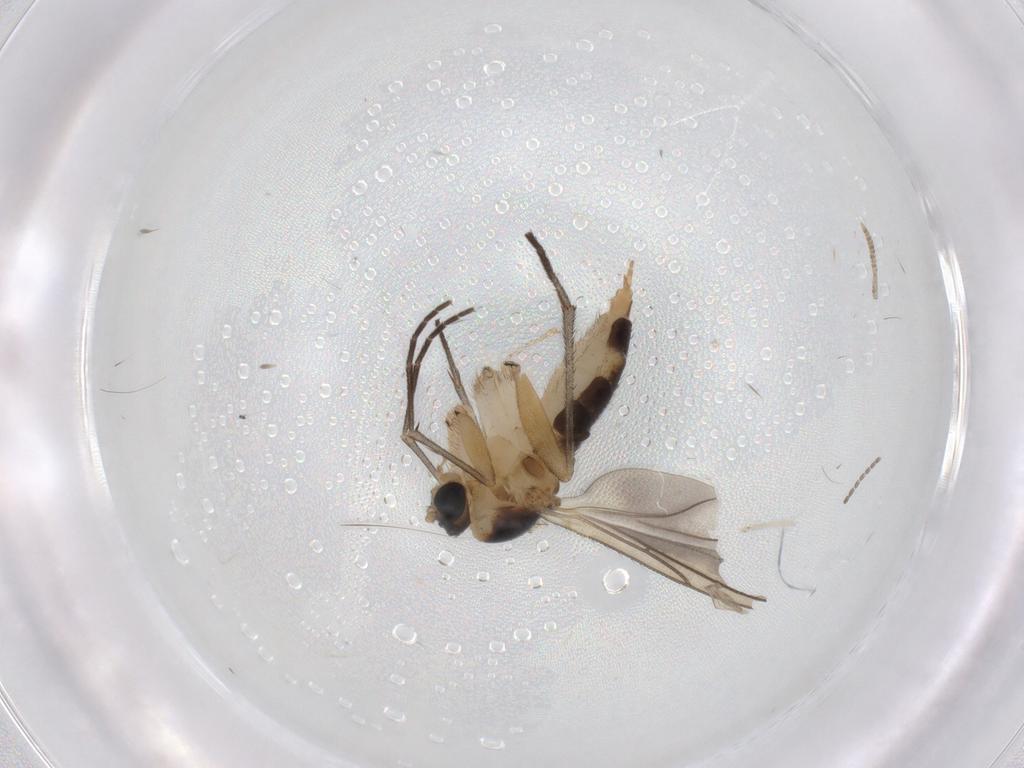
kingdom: Animalia
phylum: Arthropoda
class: Insecta
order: Diptera
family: Sciaridae
